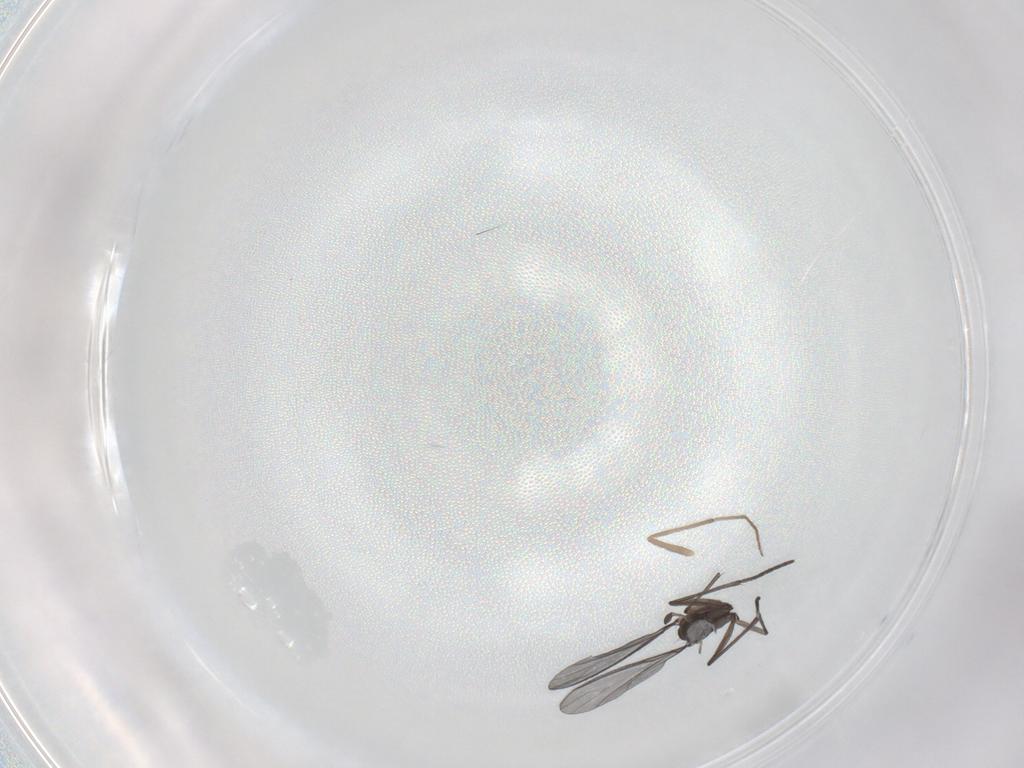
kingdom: Animalia
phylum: Arthropoda
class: Insecta
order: Diptera
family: Chironomidae
